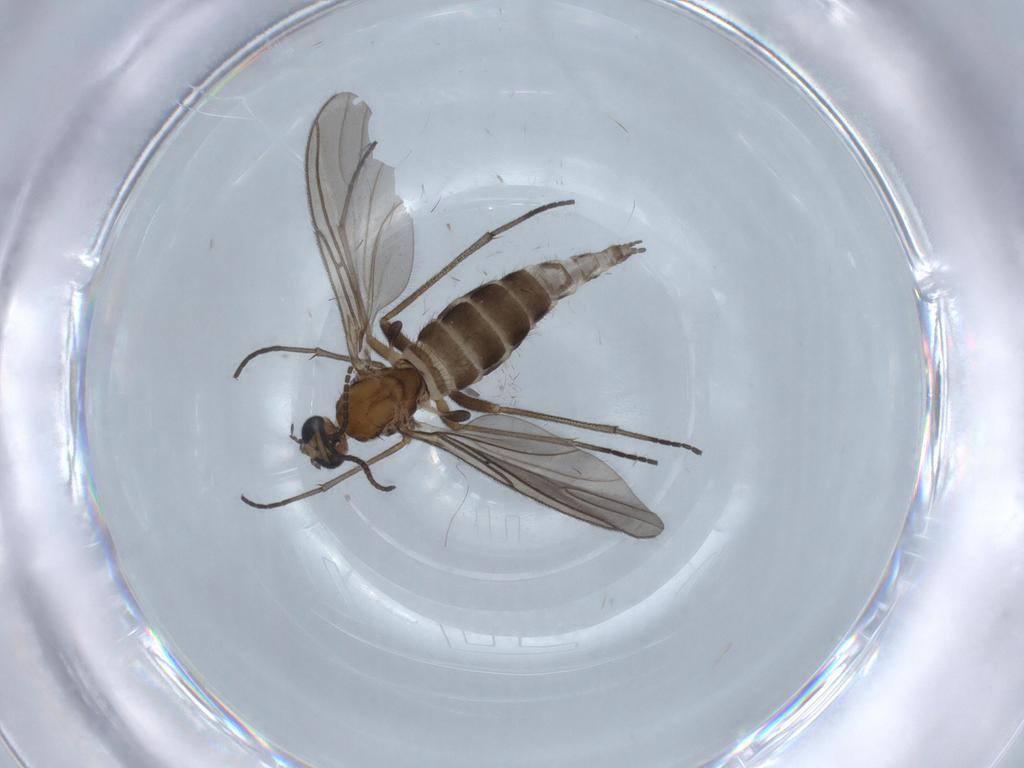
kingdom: Animalia
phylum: Arthropoda
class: Insecta
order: Diptera
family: Sciaridae
